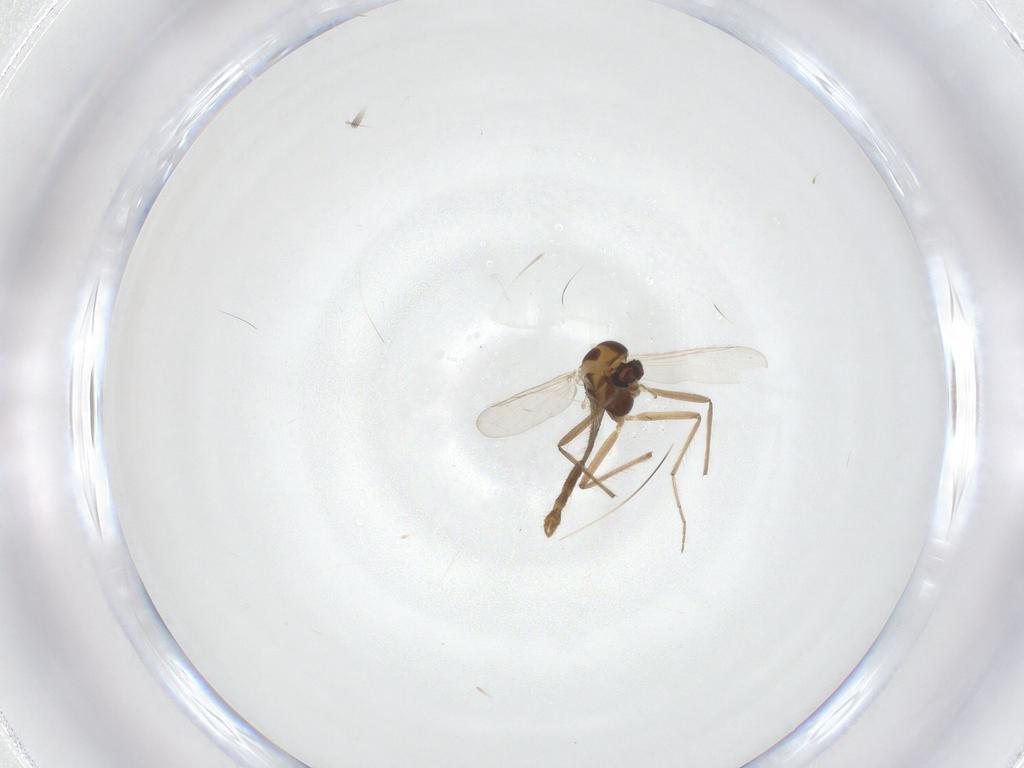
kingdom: Animalia
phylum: Arthropoda
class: Insecta
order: Diptera
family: Chironomidae
